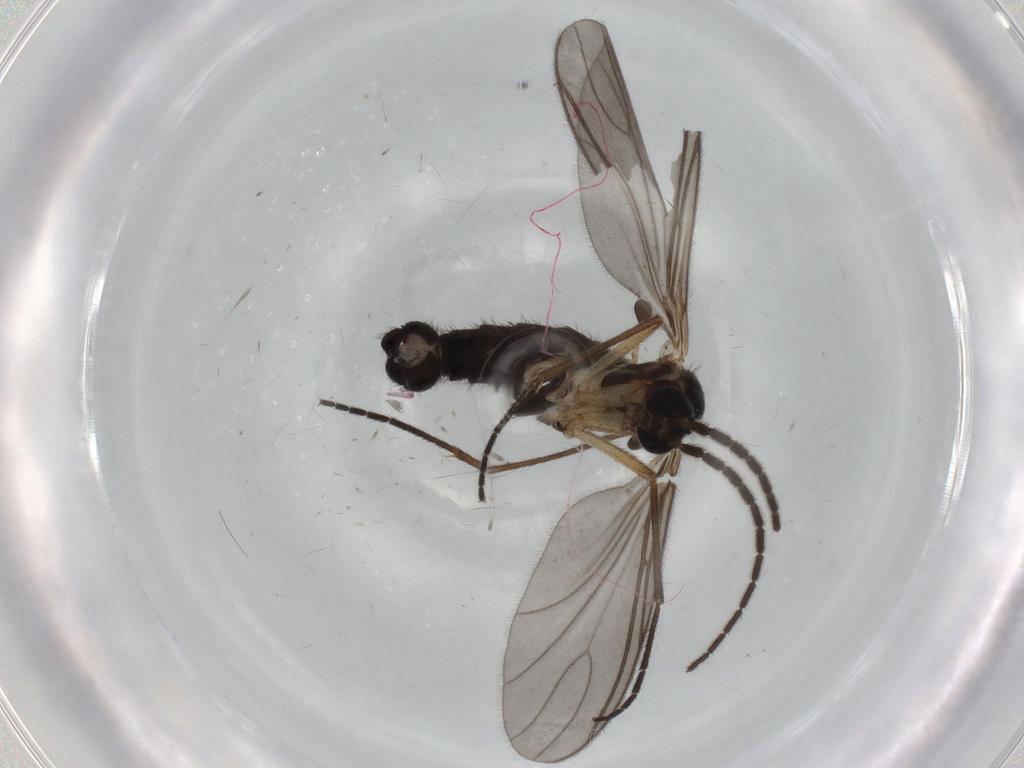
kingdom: Animalia
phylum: Arthropoda
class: Insecta
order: Diptera
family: Sciaridae
